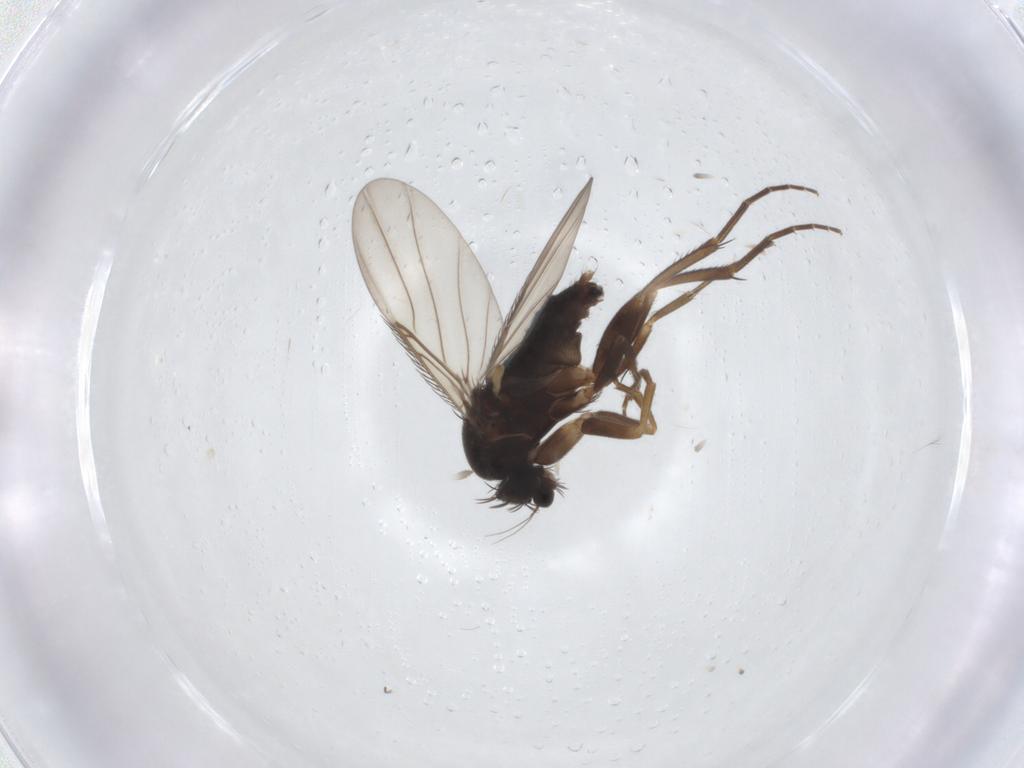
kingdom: Animalia
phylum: Arthropoda
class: Insecta
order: Diptera
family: Phoridae
